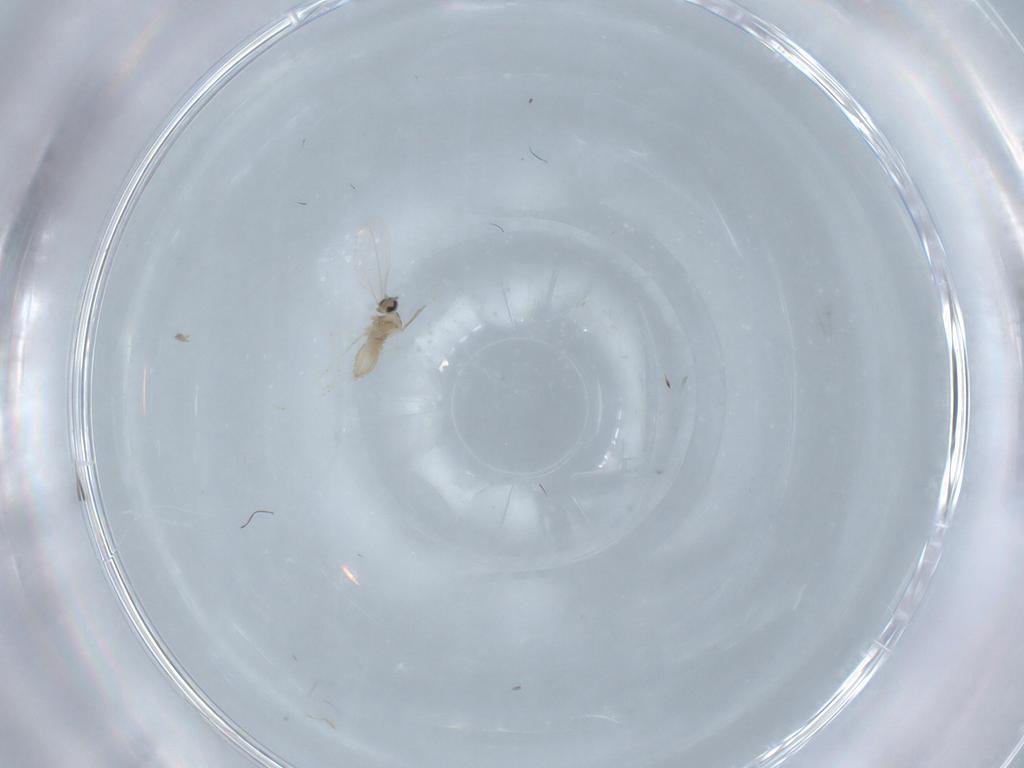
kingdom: Animalia
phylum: Arthropoda
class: Insecta
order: Diptera
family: Cecidomyiidae
